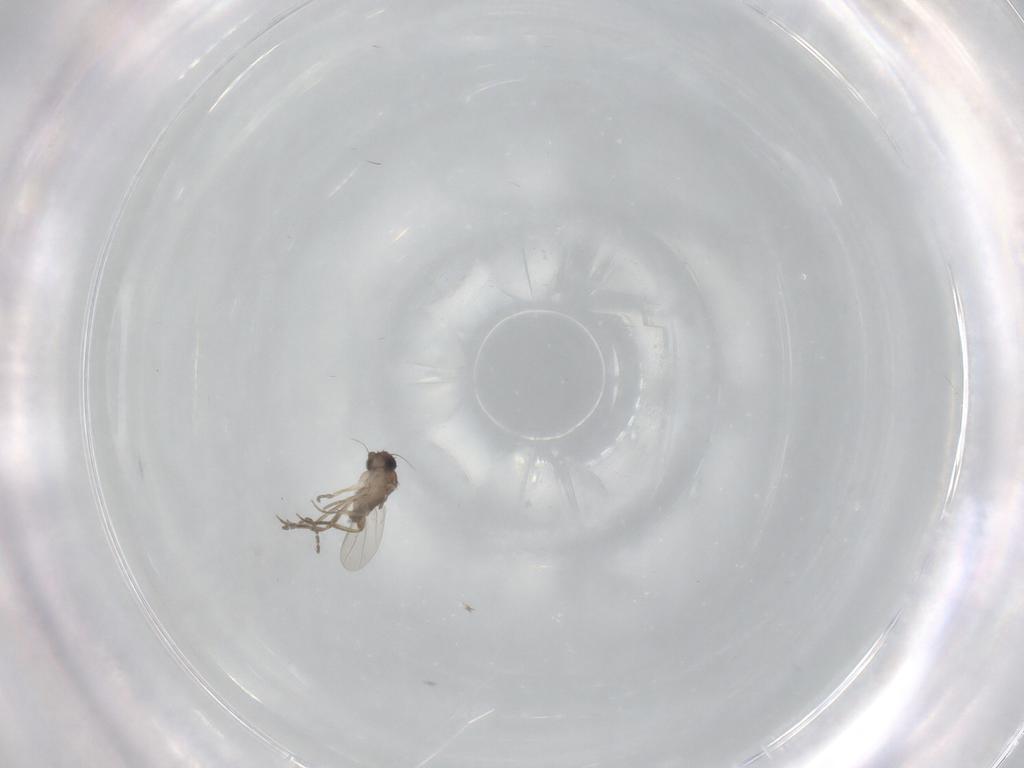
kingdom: Animalia
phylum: Arthropoda
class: Insecta
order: Diptera
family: Phoridae
